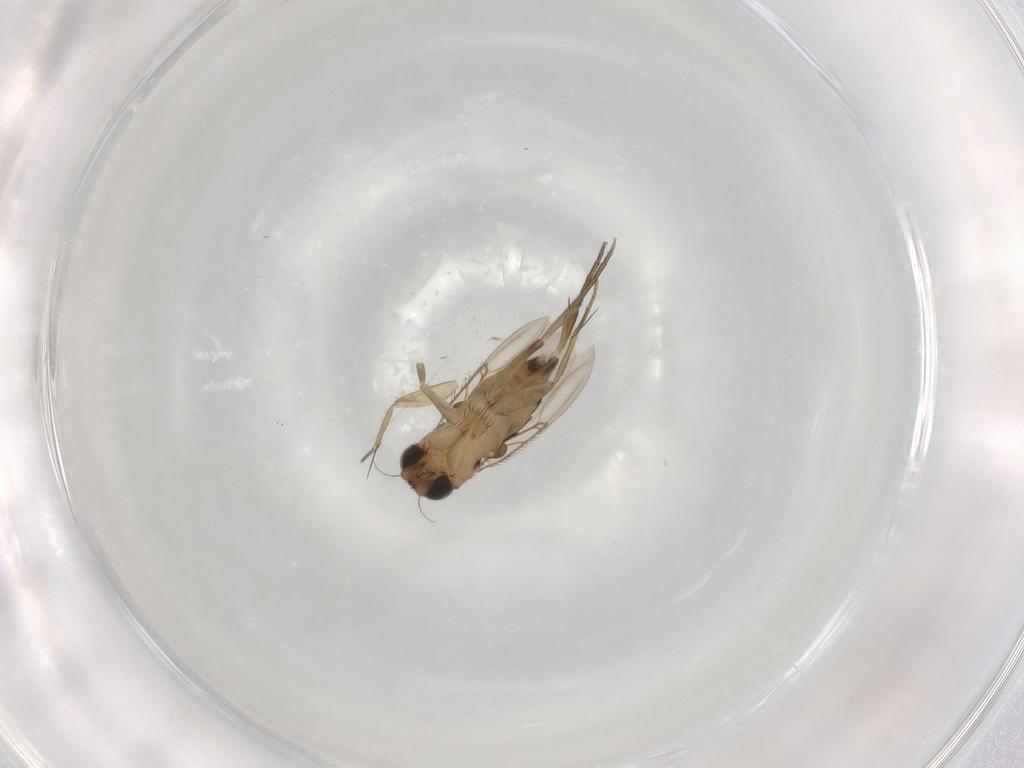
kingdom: Animalia
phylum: Arthropoda
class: Insecta
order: Diptera
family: Phoridae
